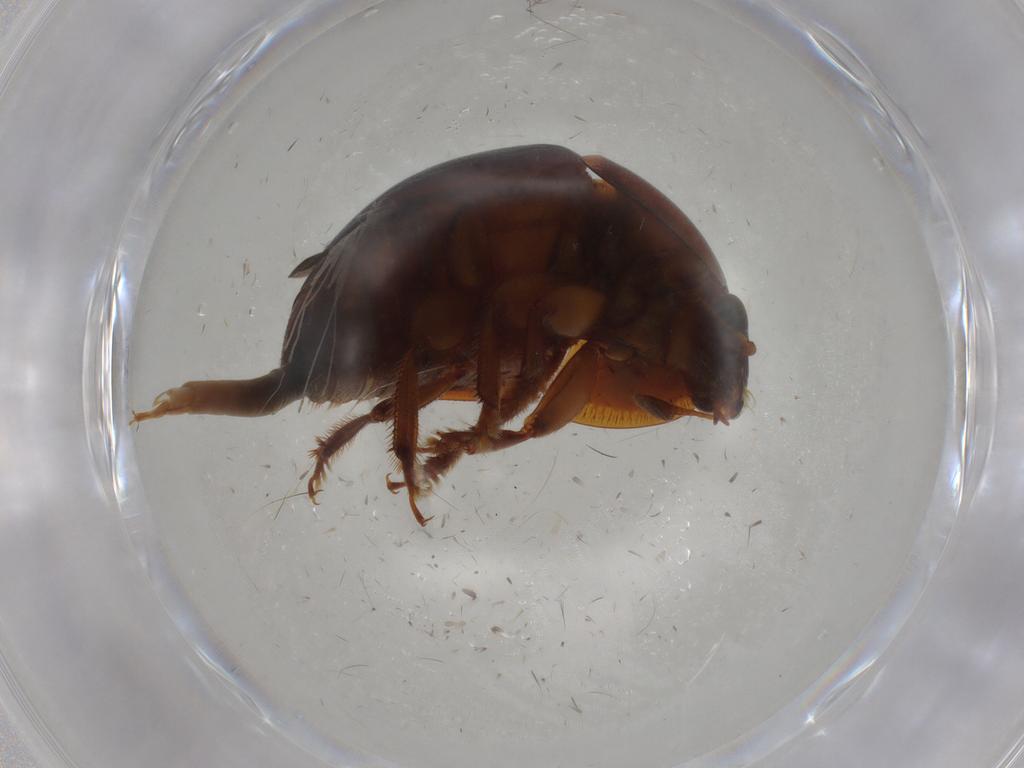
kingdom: Animalia
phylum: Arthropoda
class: Insecta
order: Coleoptera
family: Nitidulidae
